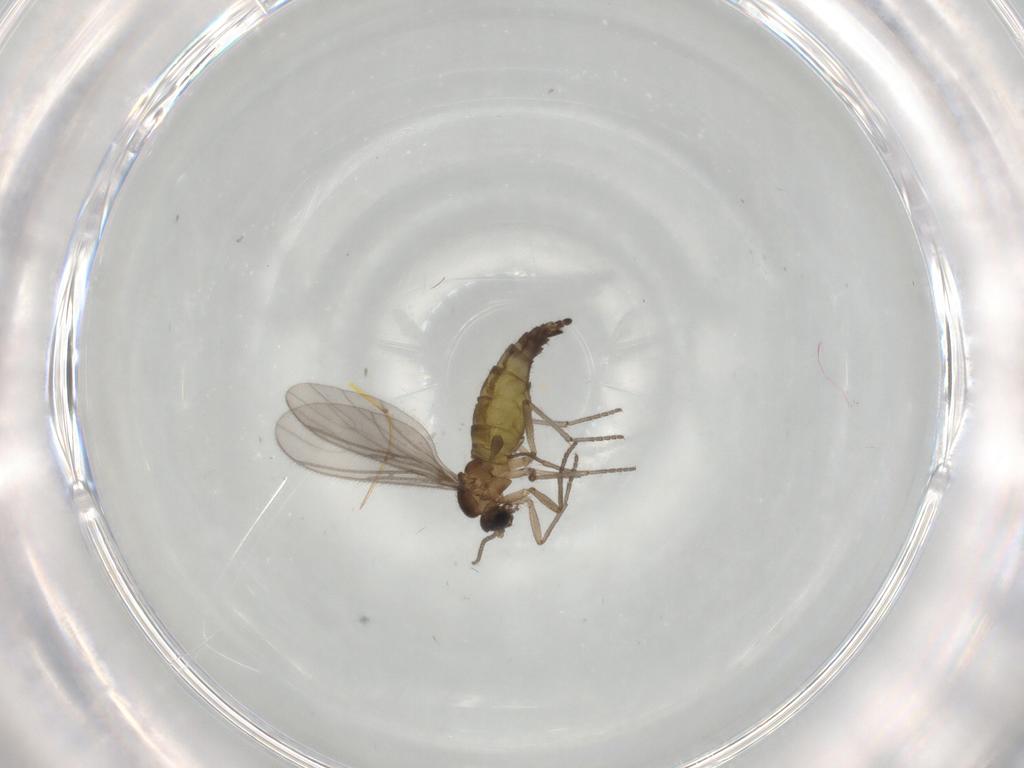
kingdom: Animalia
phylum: Arthropoda
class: Insecta
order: Diptera
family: Sciaridae
